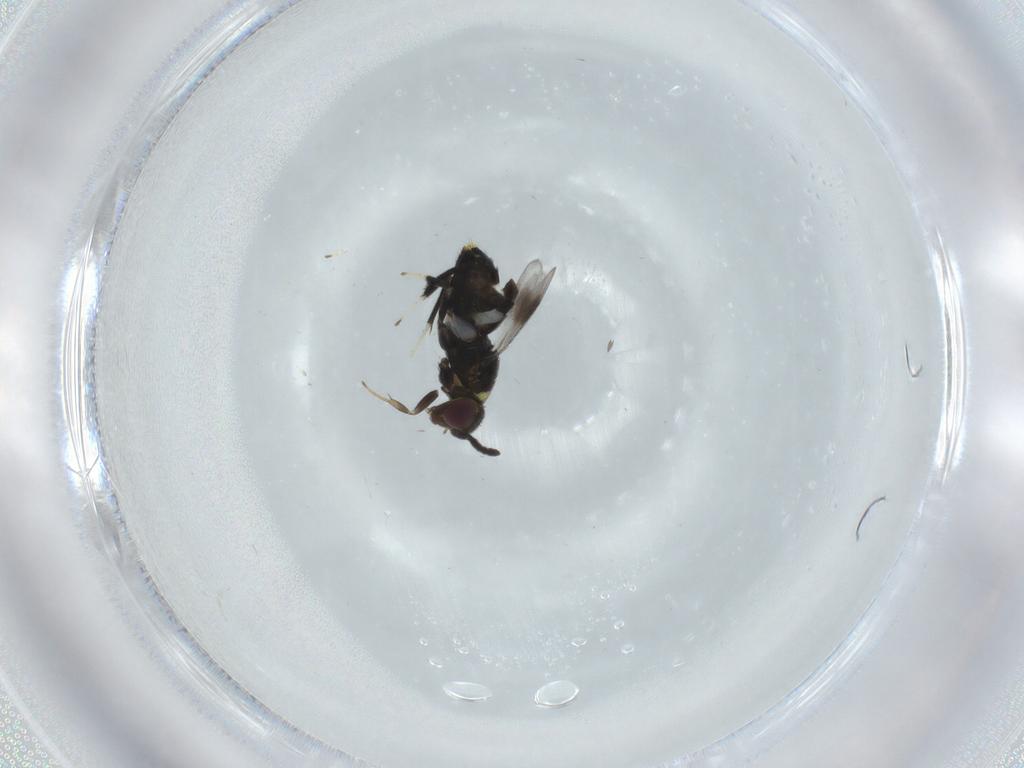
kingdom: Animalia
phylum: Arthropoda
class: Insecta
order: Hymenoptera
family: Aphelinidae
